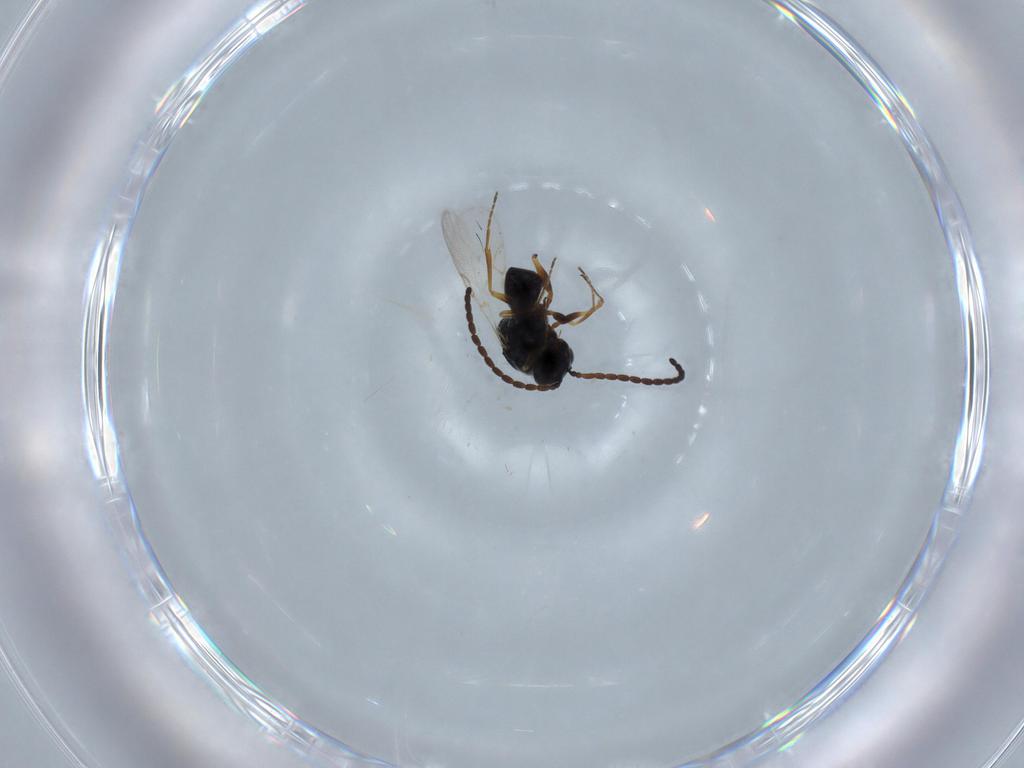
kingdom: Animalia
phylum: Arthropoda
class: Insecta
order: Hymenoptera
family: Figitidae
